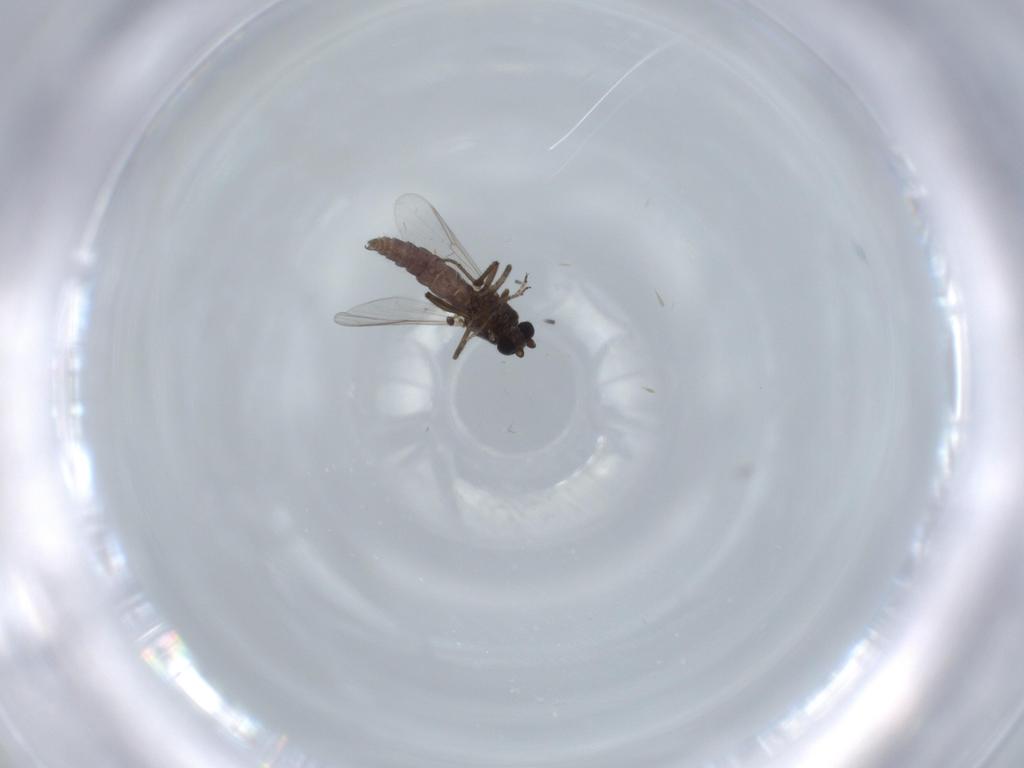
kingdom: Animalia
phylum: Arthropoda
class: Insecta
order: Diptera
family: Ceratopogonidae
